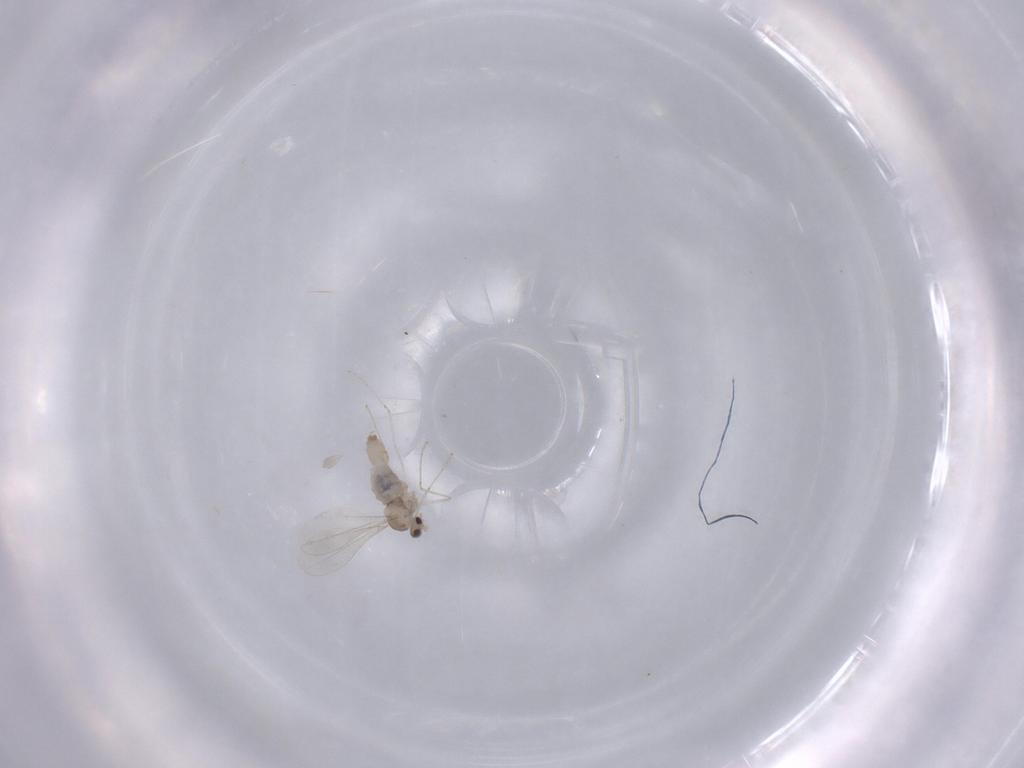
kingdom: Animalia
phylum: Arthropoda
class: Insecta
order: Diptera
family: Cecidomyiidae
